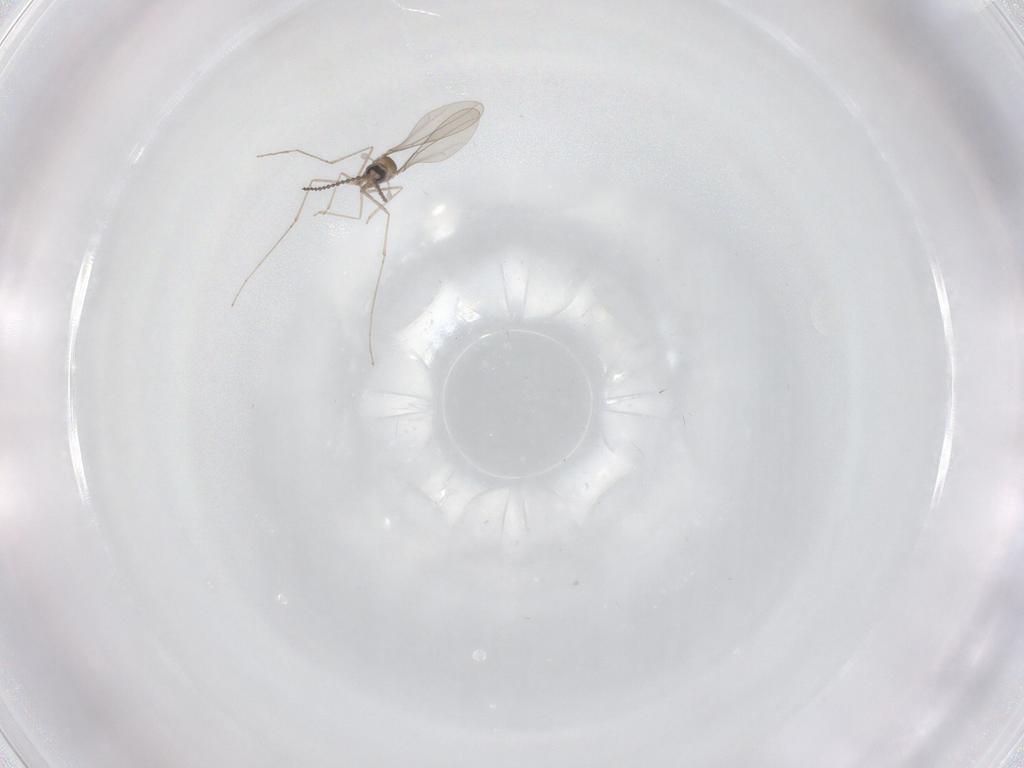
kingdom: Animalia
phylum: Arthropoda
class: Insecta
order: Diptera
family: Cecidomyiidae
